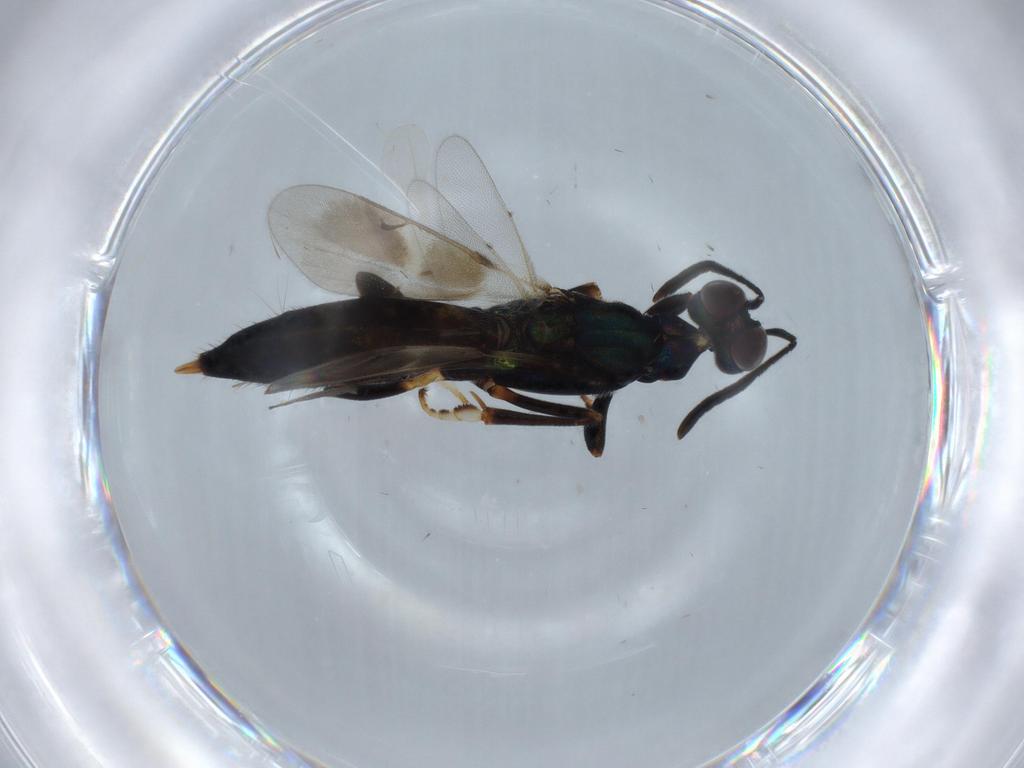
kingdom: Animalia
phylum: Arthropoda
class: Insecta
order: Hymenoptera
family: Eupelmidae
